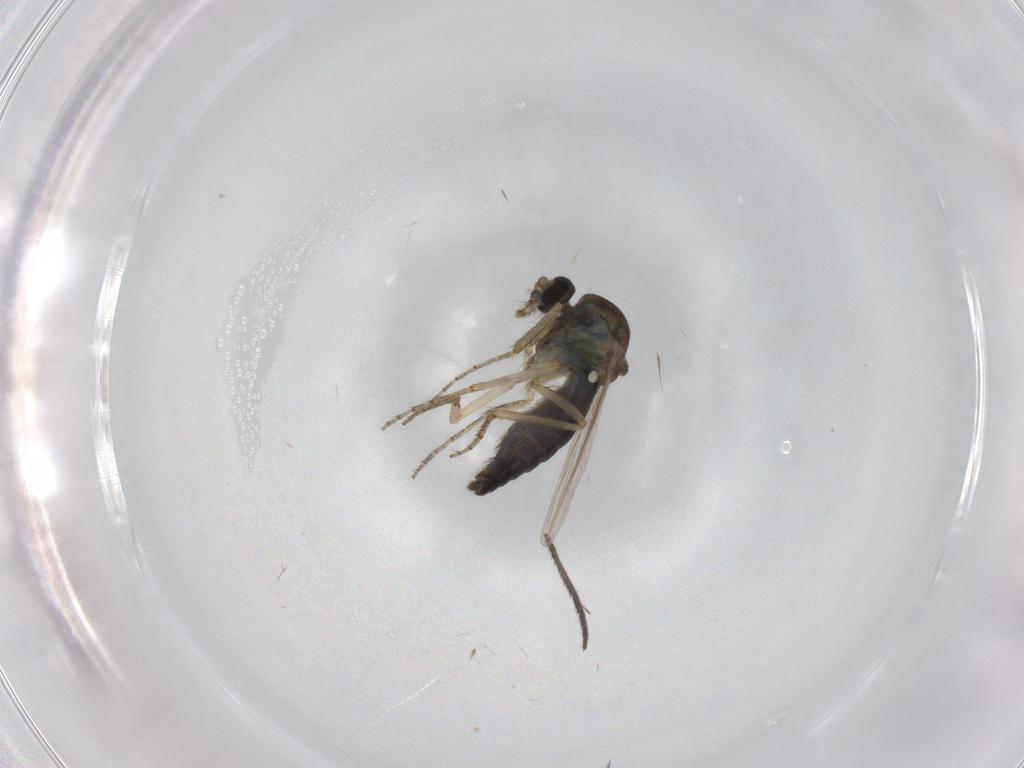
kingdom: Animalia
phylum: Arthropoda
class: Insecta
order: Diptera
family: Ceratopogonidae
